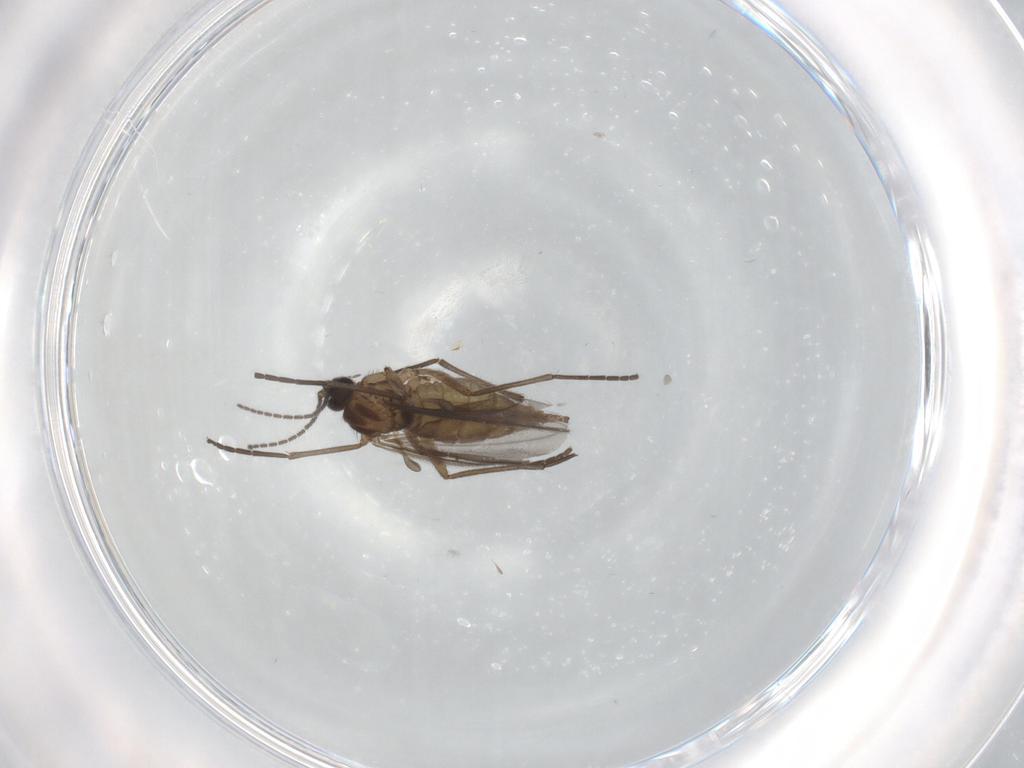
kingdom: Animalia
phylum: Arthropoda
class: Insecta
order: Diptera
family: Sciaridae
